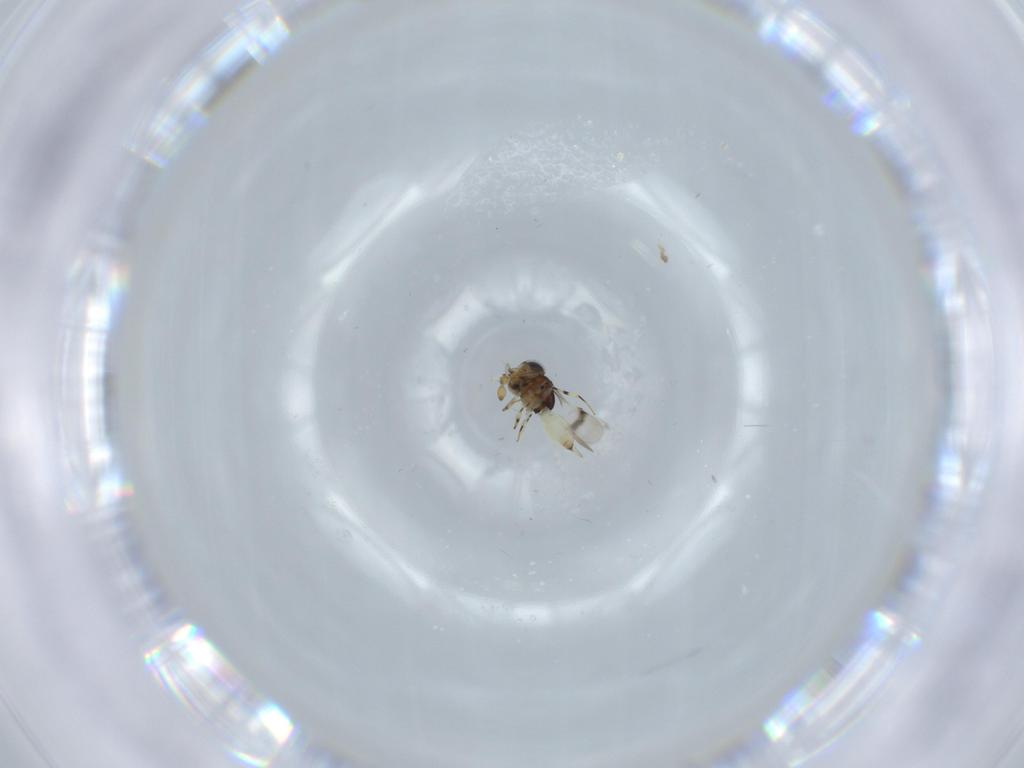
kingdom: Animalia
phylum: Arthropoda
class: Insecta
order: Hymenoptera
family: Scelionidae
